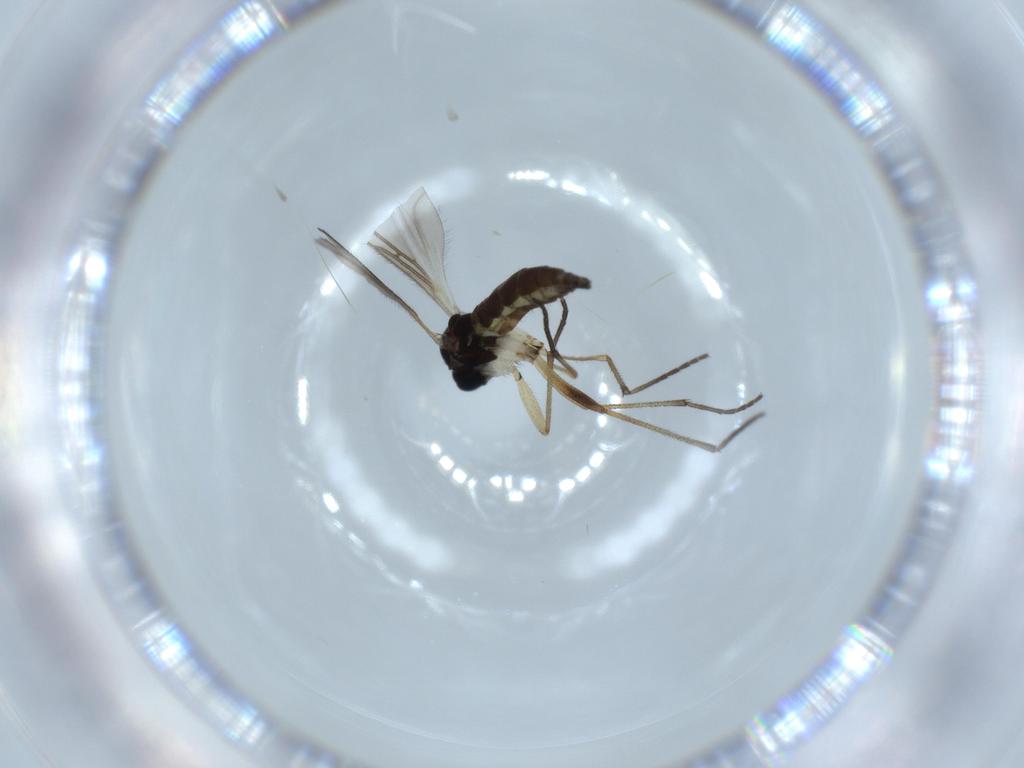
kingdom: Animalia
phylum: Arthropoda
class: Insecta
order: Diptera
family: Sciaridae
